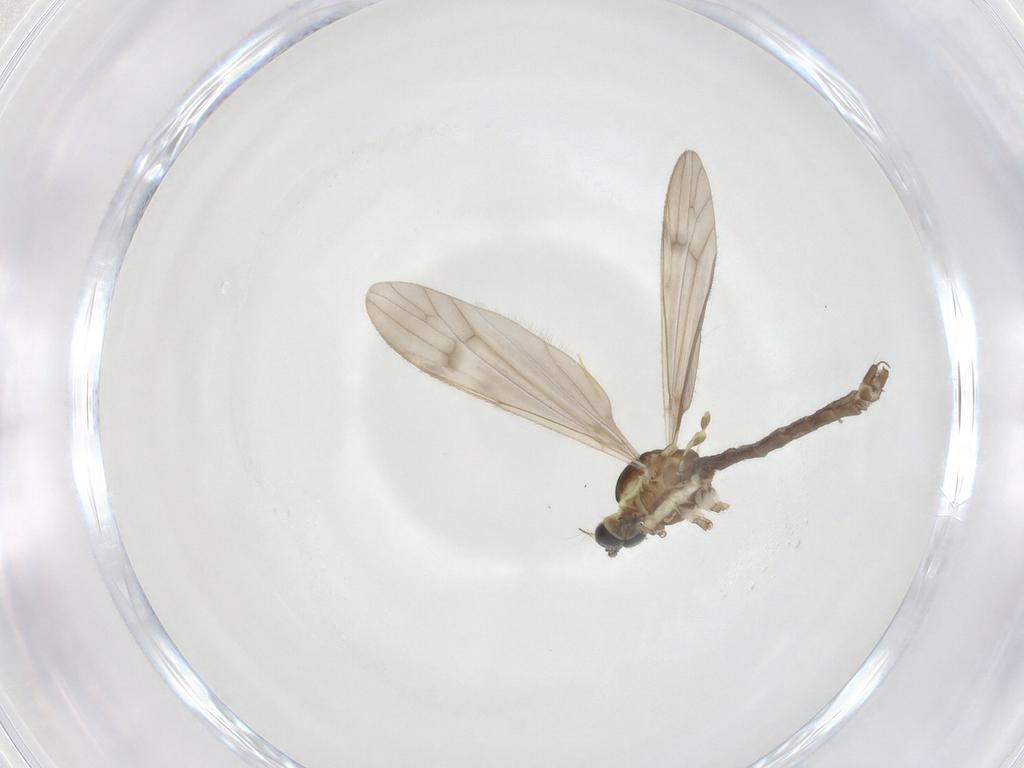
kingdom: Animalia
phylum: Arthropoda
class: Insecta
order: Diptera
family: Limoniidae
